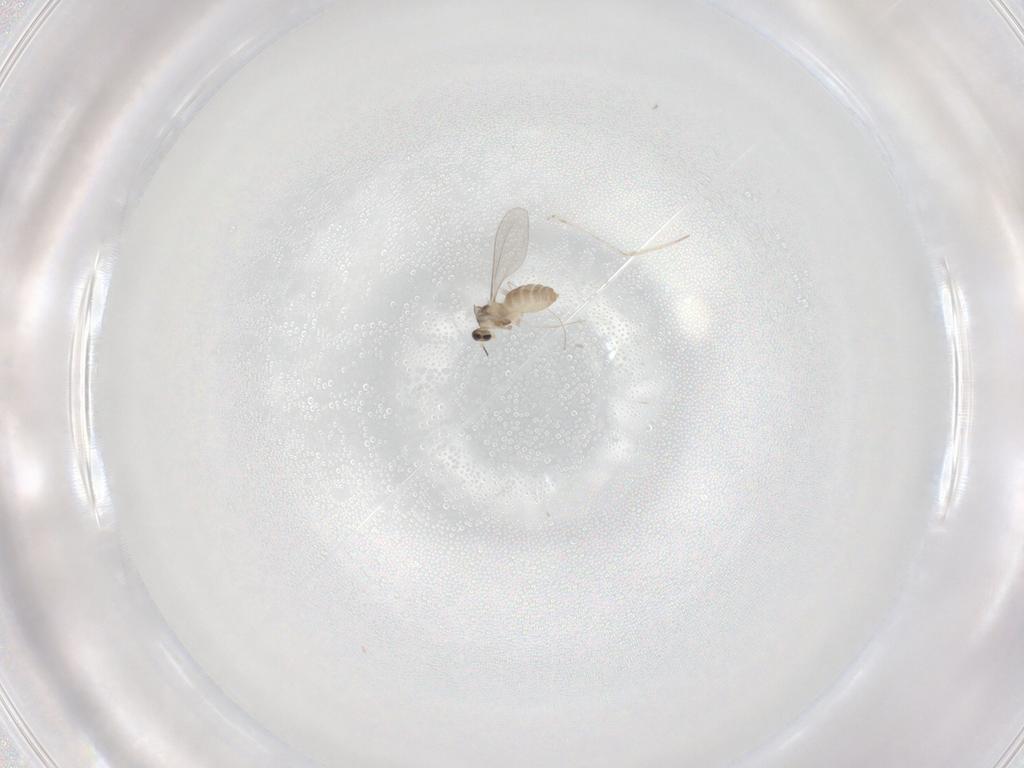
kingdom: Animalia
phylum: Arthropoda
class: Insecta
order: Diptera
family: Cecidomyiidae
